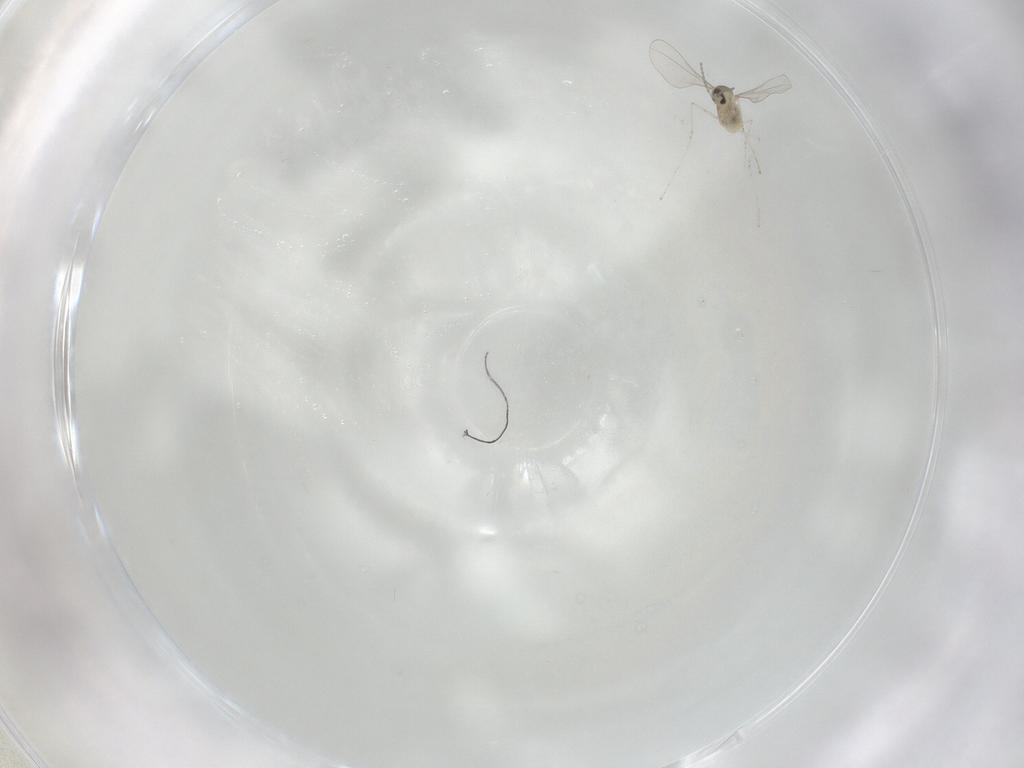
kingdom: Animalia
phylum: Arthropoda
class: Insecta
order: Diptera
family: Cecidomyiidae
